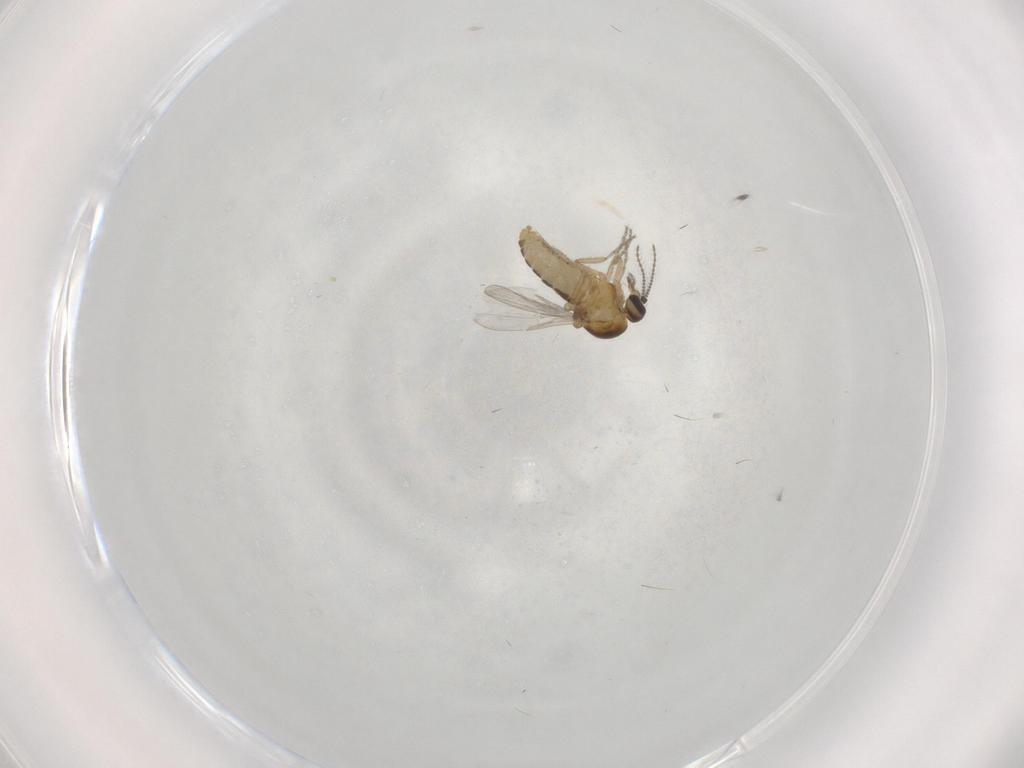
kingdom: Animalia
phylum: Arthropoda
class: Insecta
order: Diptera
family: Ceratopogonidae
